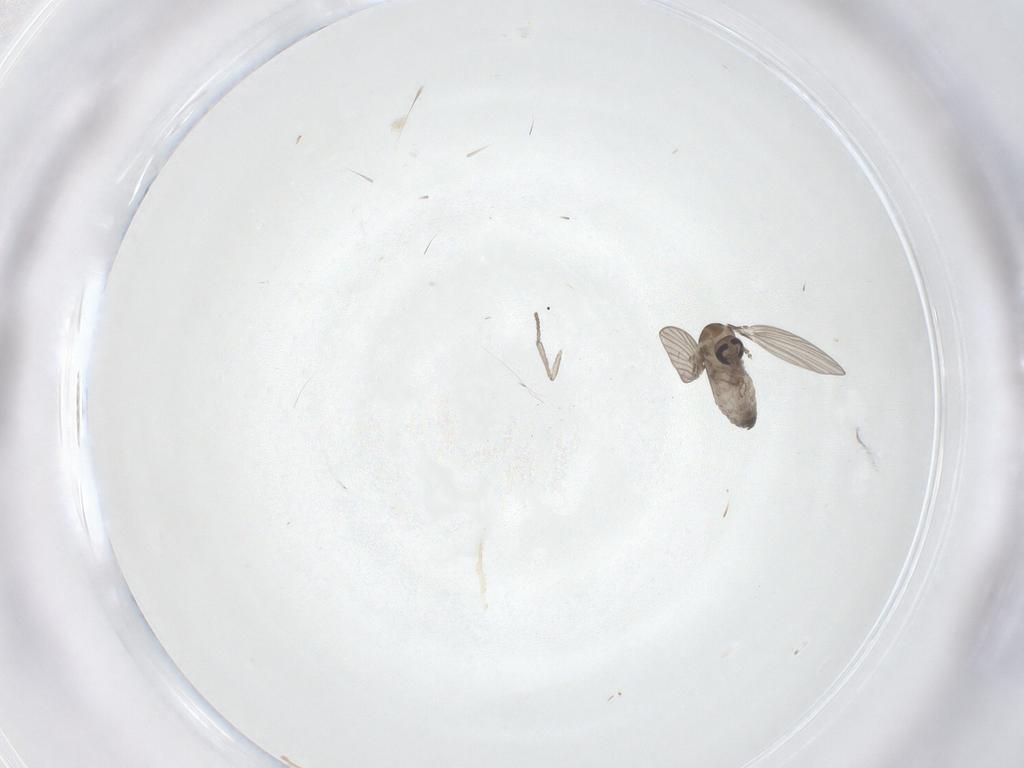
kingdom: Animalia
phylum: Arthropoda
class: Insecta
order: Diptera
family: Psychodidae
